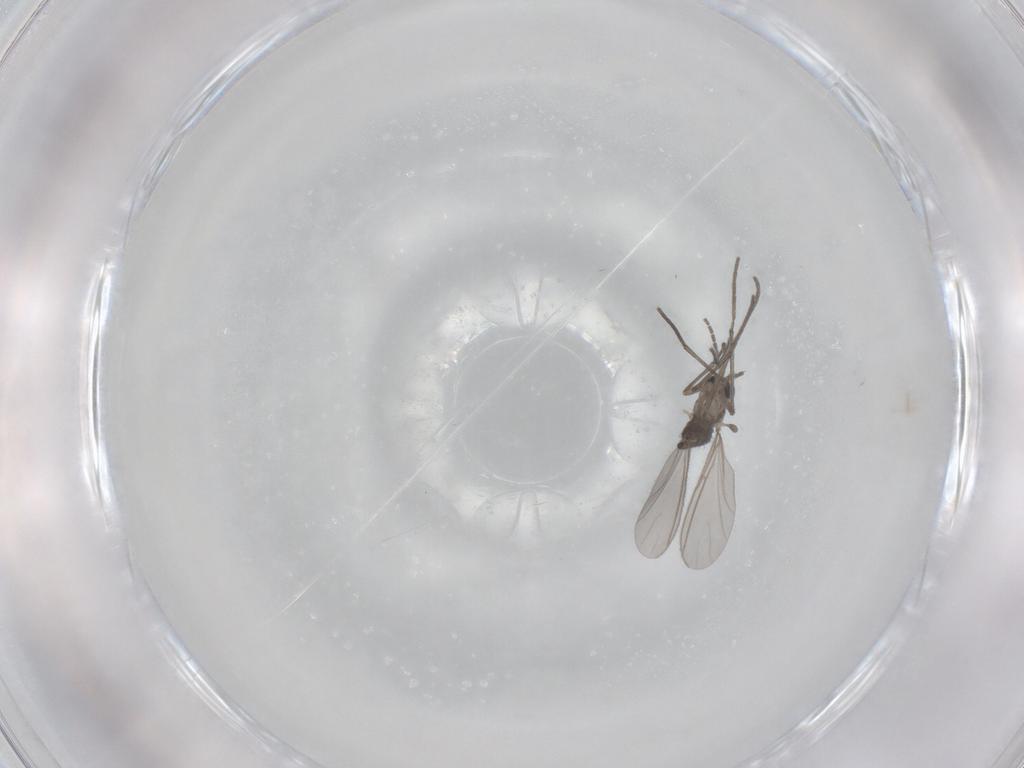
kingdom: Animalia
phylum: Arthropoda
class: Insecta
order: Diptera
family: Sciaridae
